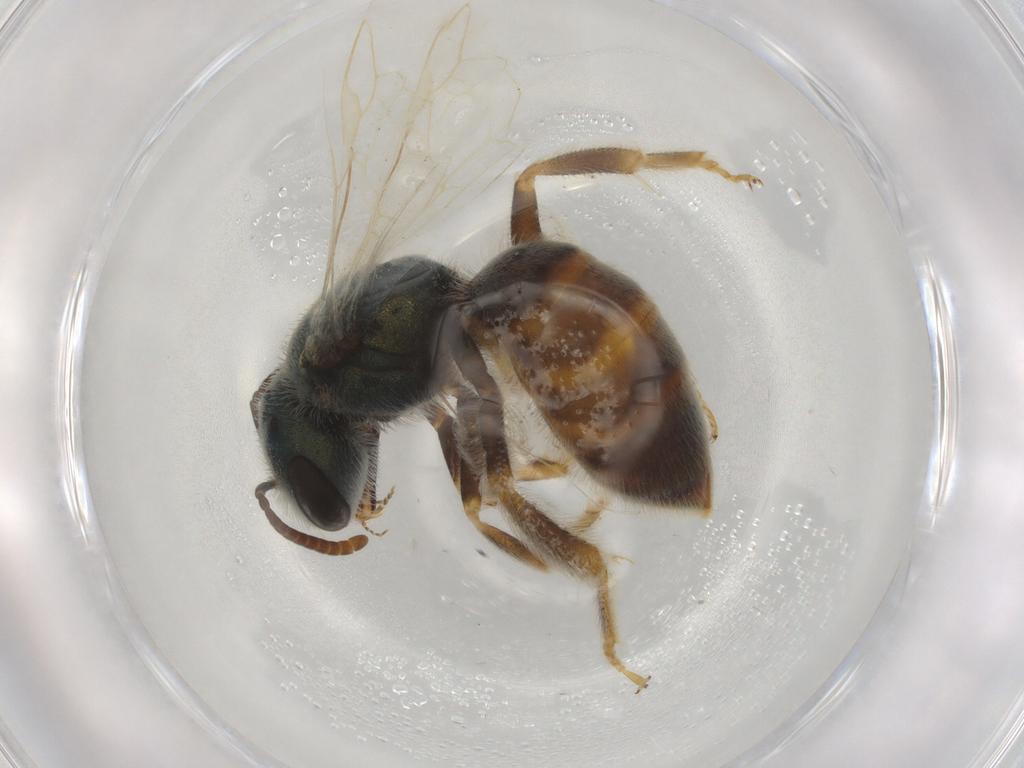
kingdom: Animalia
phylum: Arthropoda
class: Insecta
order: Hymenoptera
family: Halictidae
